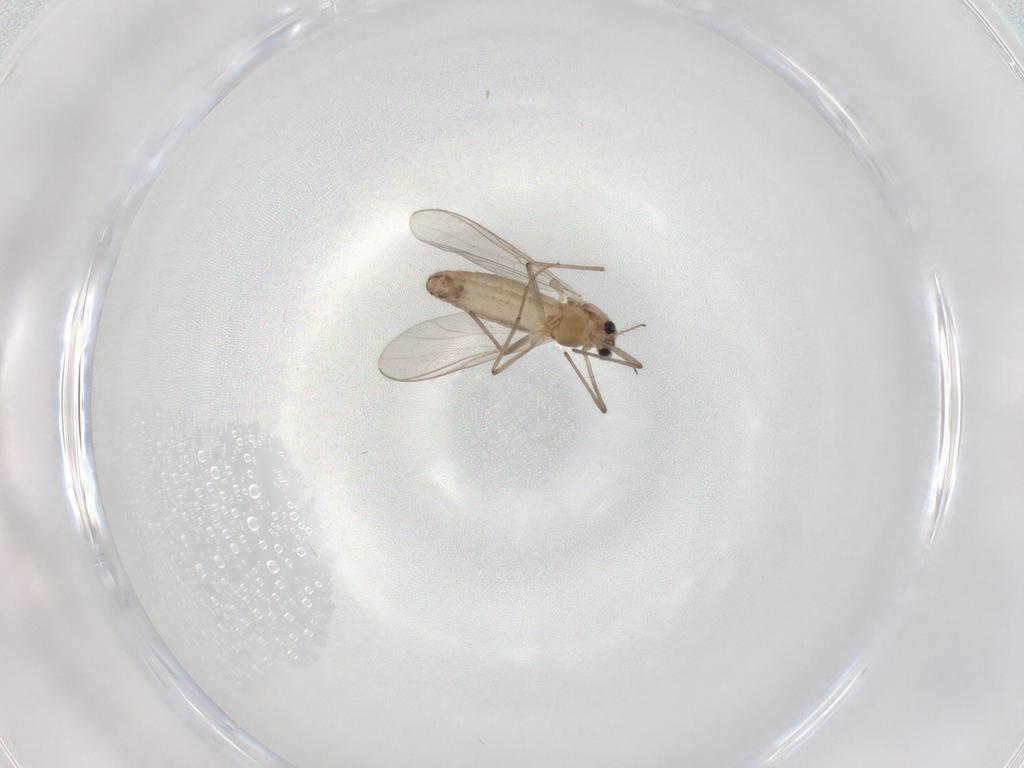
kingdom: Animalia
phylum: Arthropoda
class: Insecta
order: Diptera
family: Chironomidae
